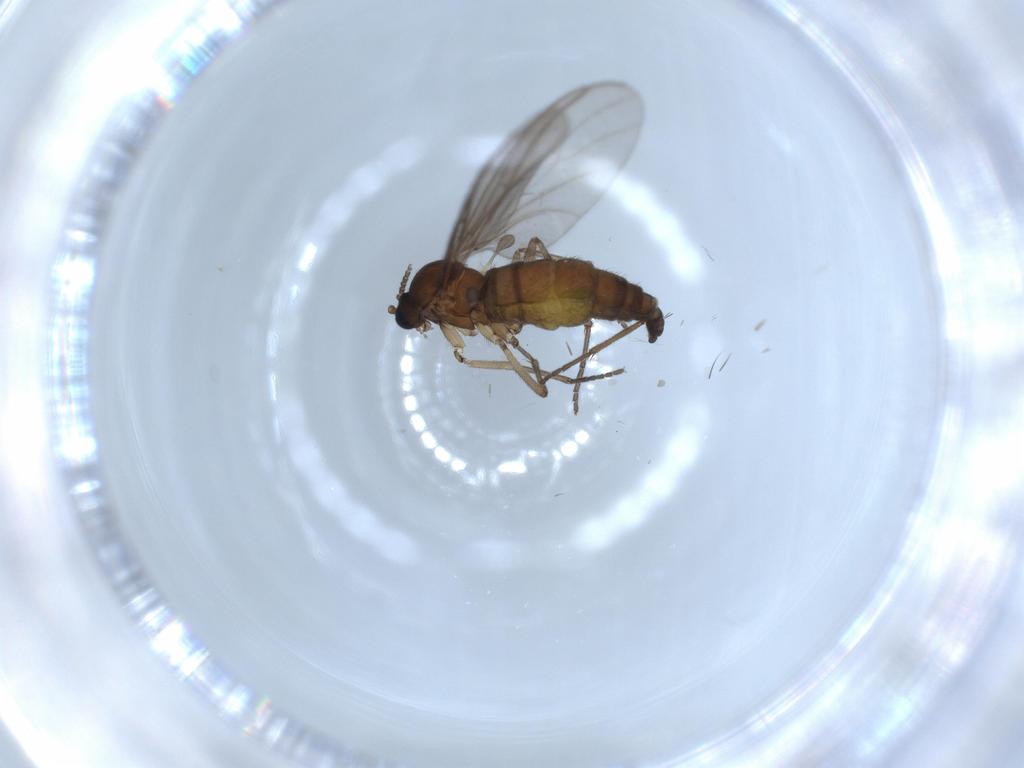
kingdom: Animalia
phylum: Arthropoda
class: Insecta
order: Diptera
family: Sciaridae
